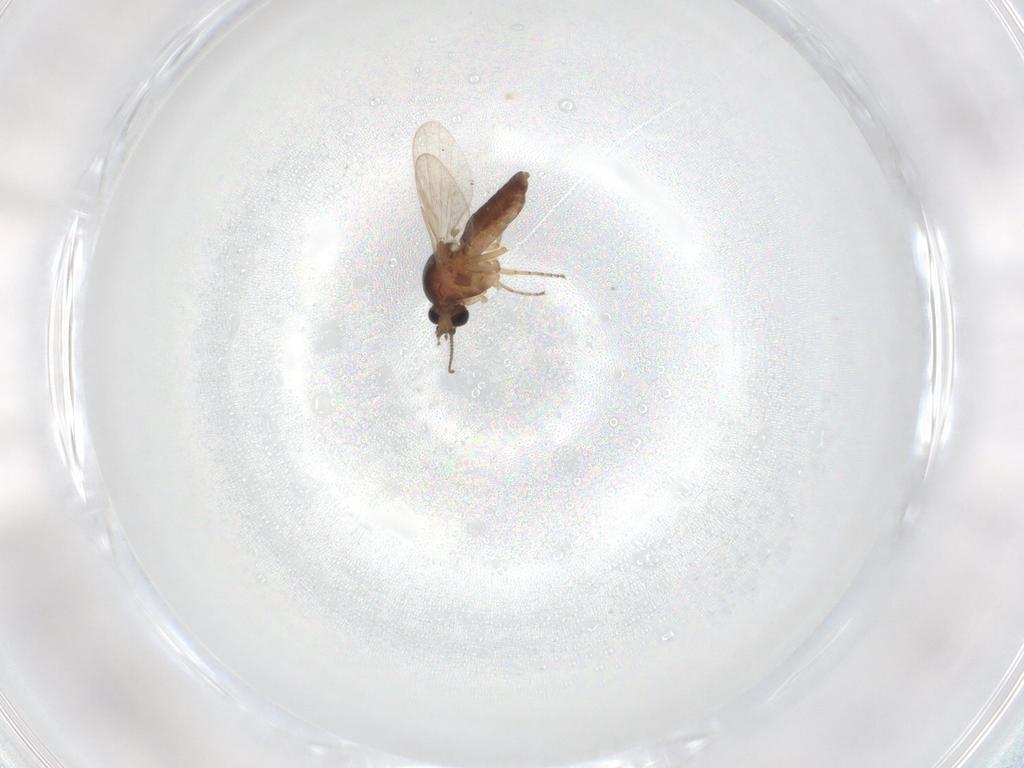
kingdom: Animalia
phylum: Arthropoda
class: Insecta
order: Diptera
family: Ceratopogonidae
